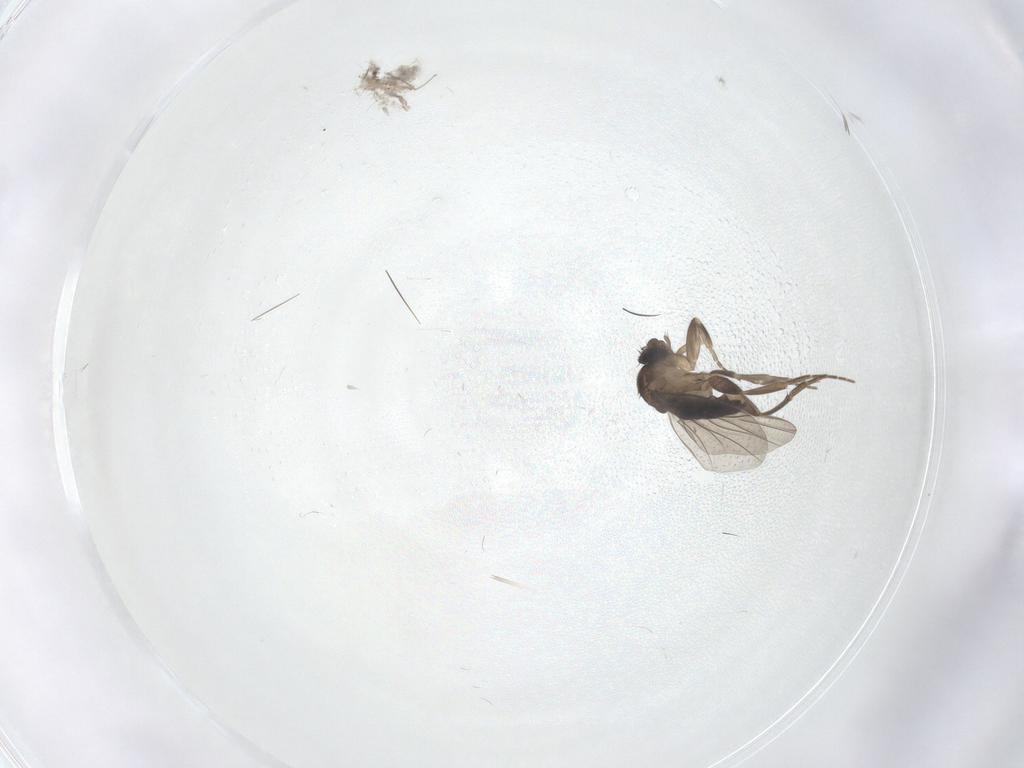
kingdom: Animalia
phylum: Arthropoda
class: Insecta
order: Diptera
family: Phoridae
